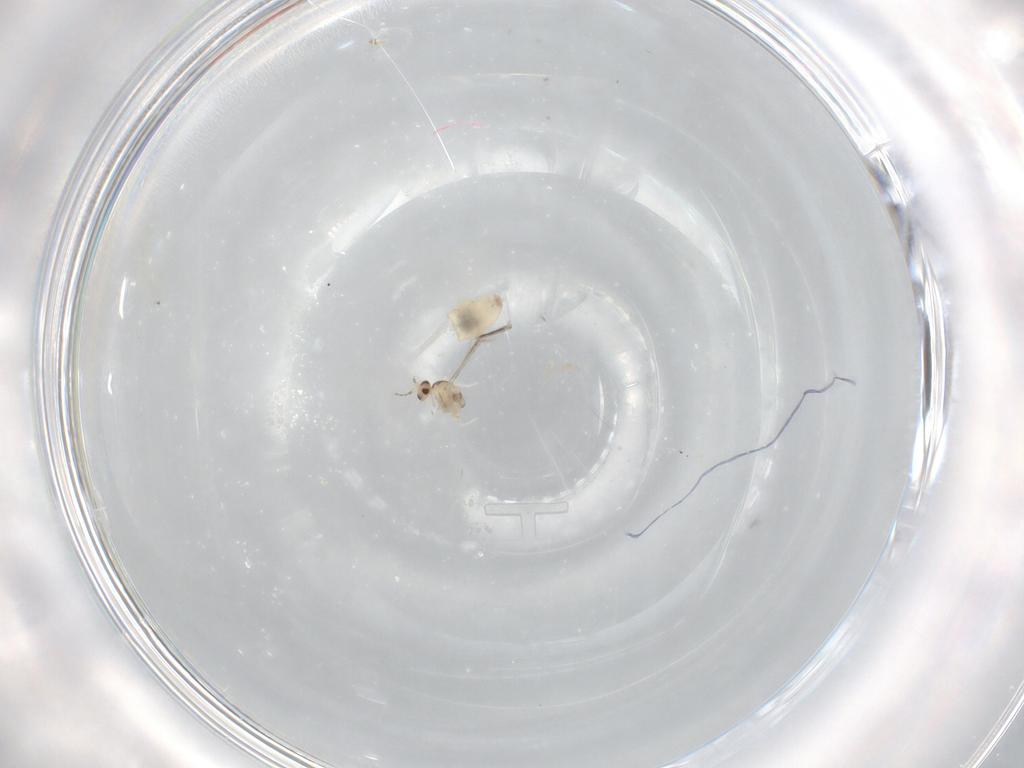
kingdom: Animalia
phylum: Arthropoda
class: Insecta
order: Diptera
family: Cecidomyiidae
